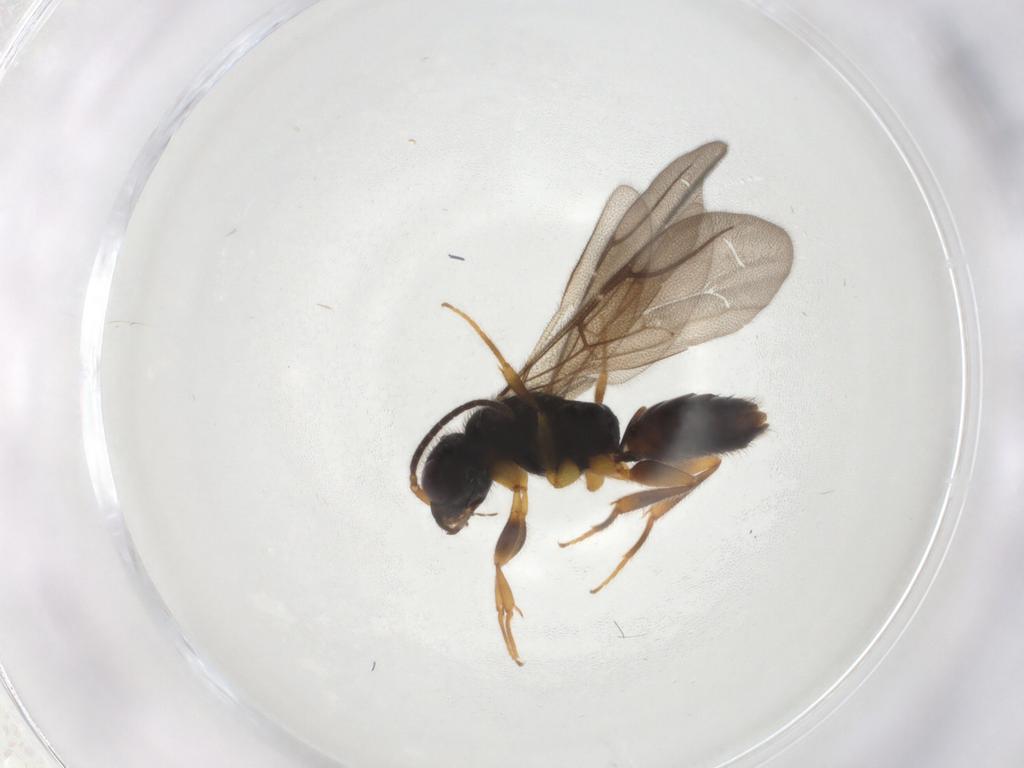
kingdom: Animalia
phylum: Arthropoda
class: Insecta
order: Hymenoptera
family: Bethylidae
